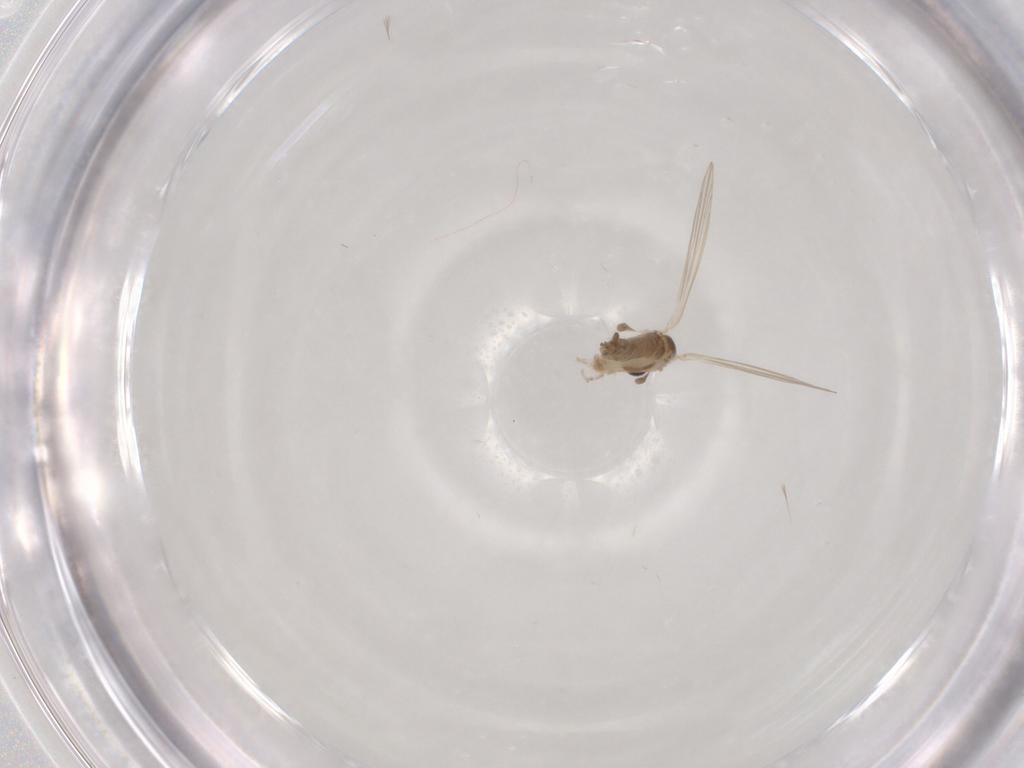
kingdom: Animalia
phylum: Arthropoda
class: Insecta
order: Diptera
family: Psychodidae
